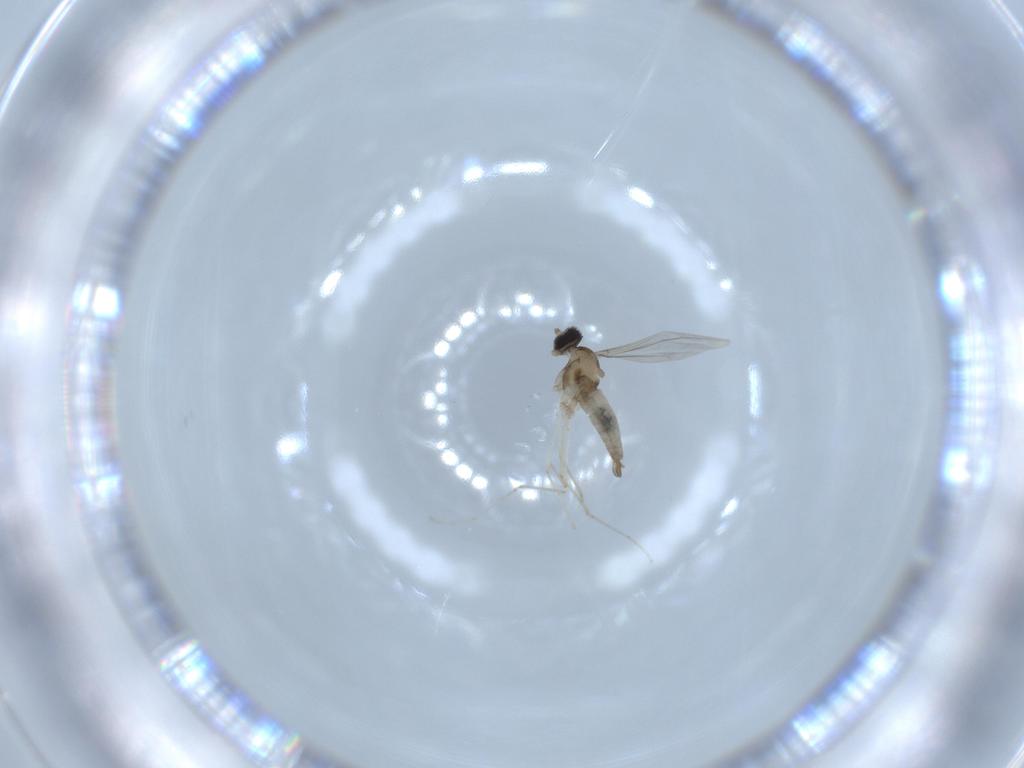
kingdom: Animalia
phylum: Arthropoda
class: Insecta
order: Diptera
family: Cecidomyiidae
